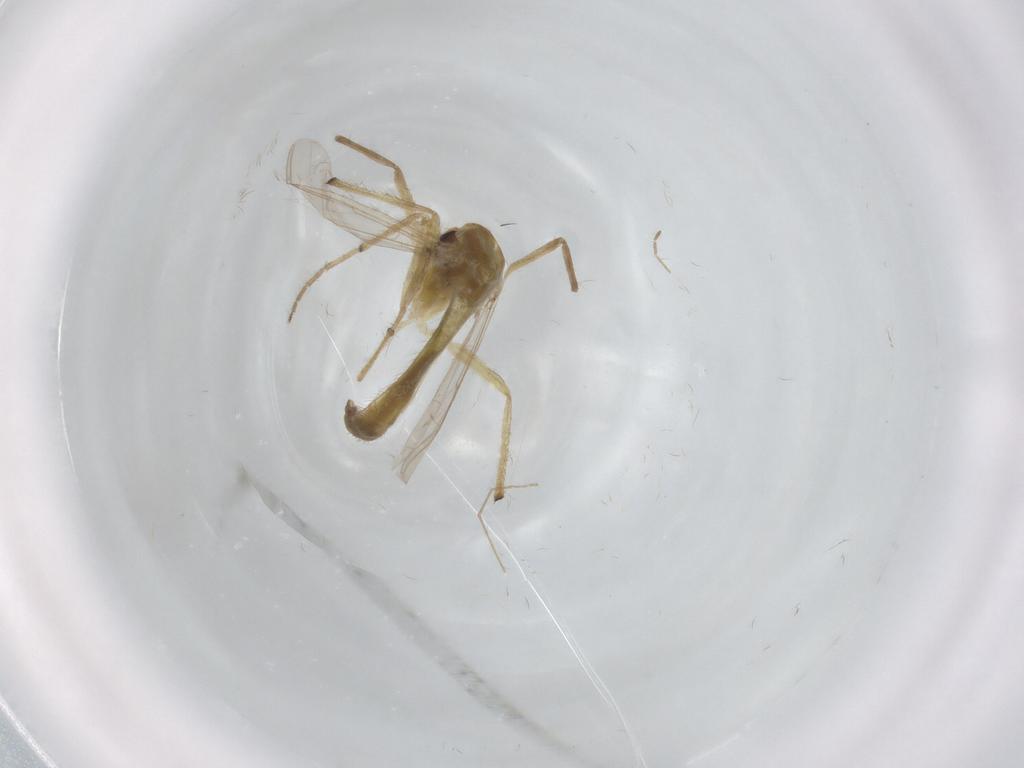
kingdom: Animalia
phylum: Arthropoda
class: Insecta
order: Diptera
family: Chironomidae
